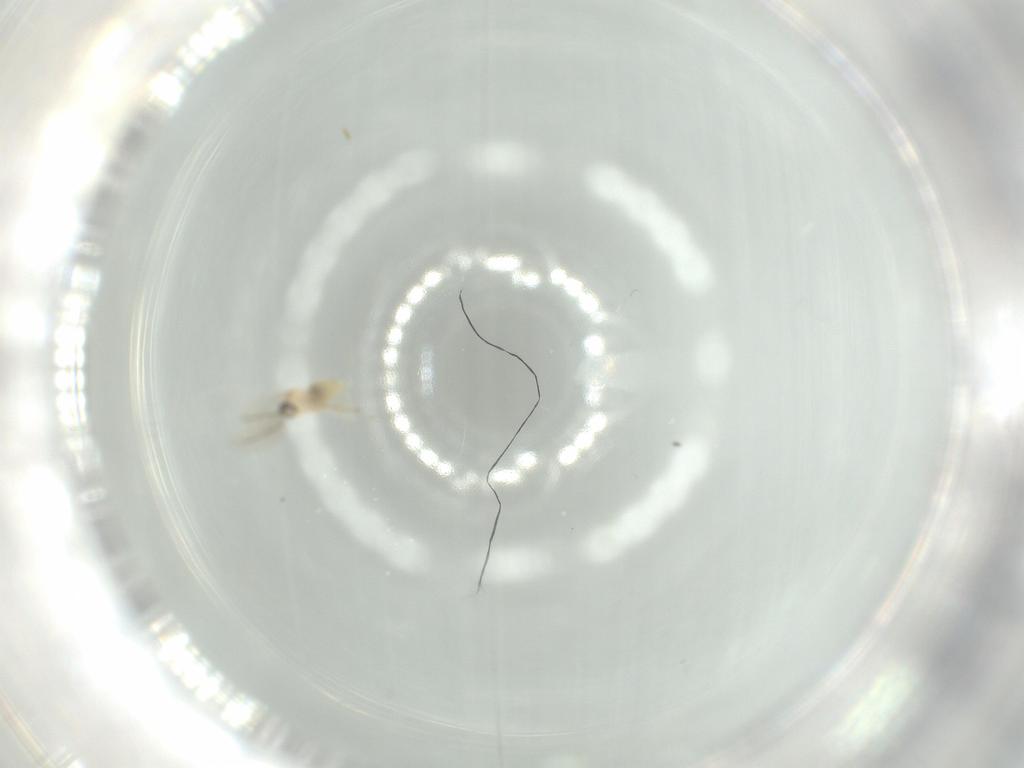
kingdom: Animalia
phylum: Arthropoda
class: Insecta
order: Diptera
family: Cecidomyiidae
